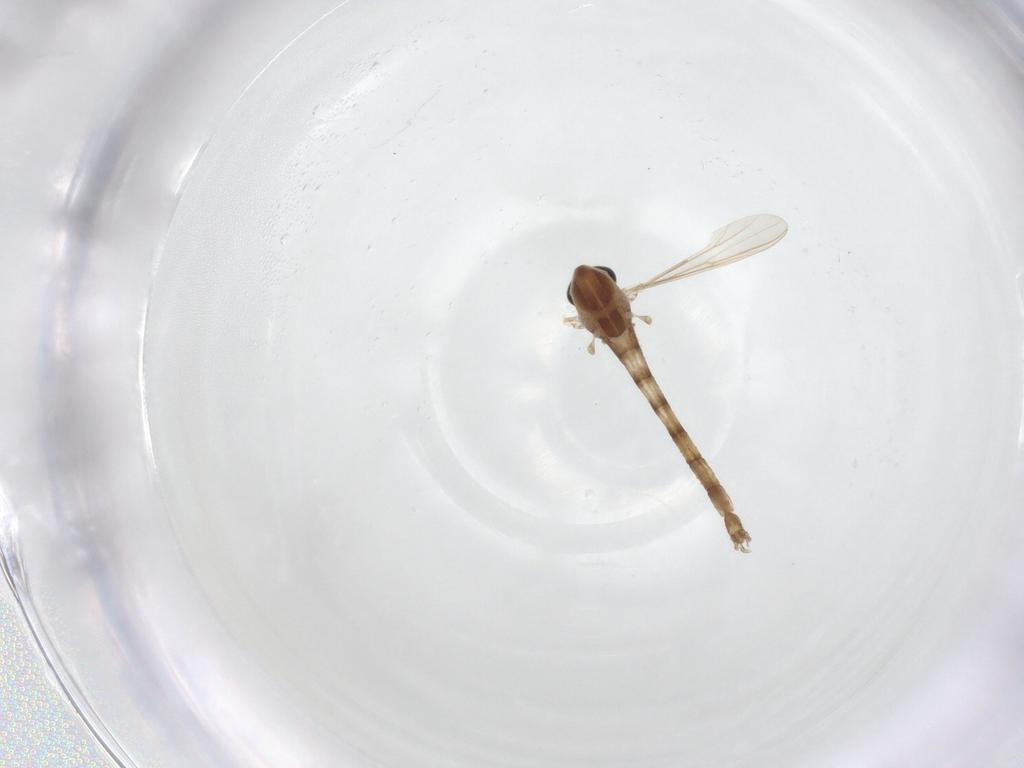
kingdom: Animalia
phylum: Arthropoda
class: Insecta
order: Diptera
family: Chironomidae
